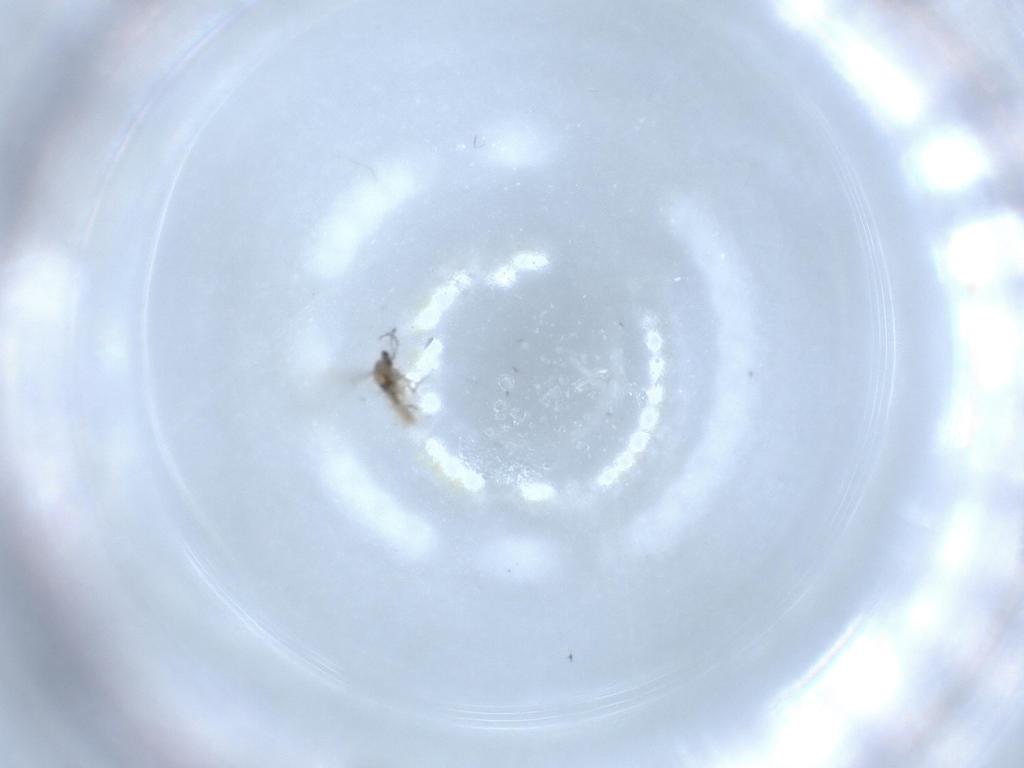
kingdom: Animalia
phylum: Arthropoda
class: Insecta
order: Diptera
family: Cecidomyiidae
